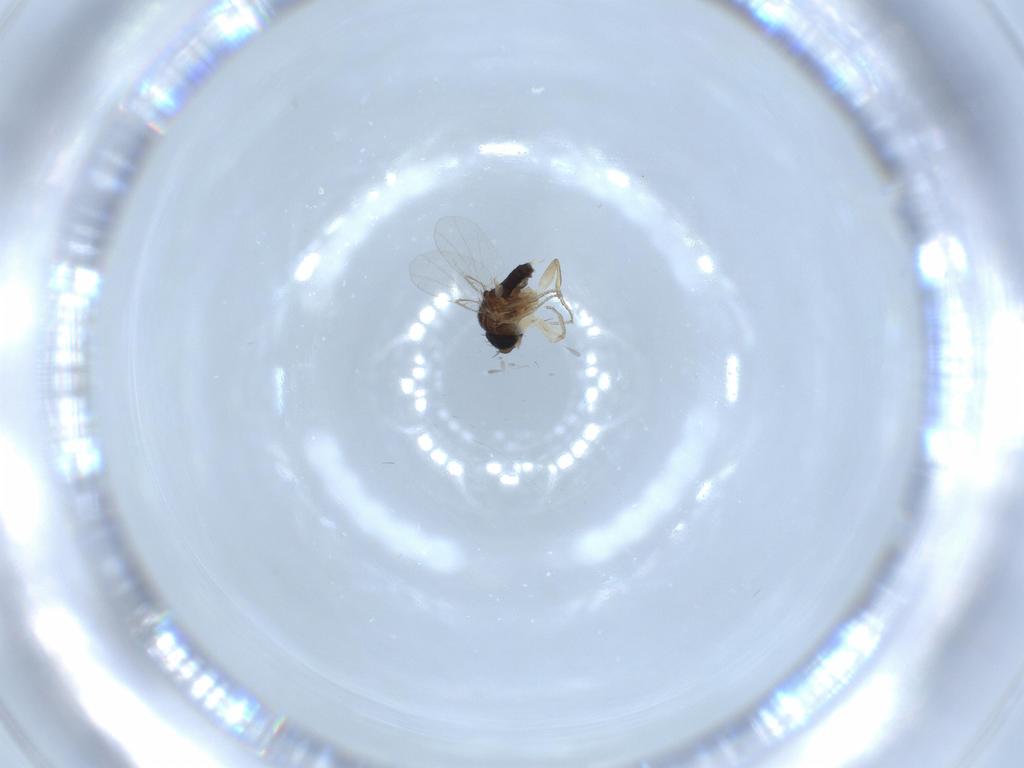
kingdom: Animalia
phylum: Arthropoda
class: Insecta
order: Diptera
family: Phoridae
